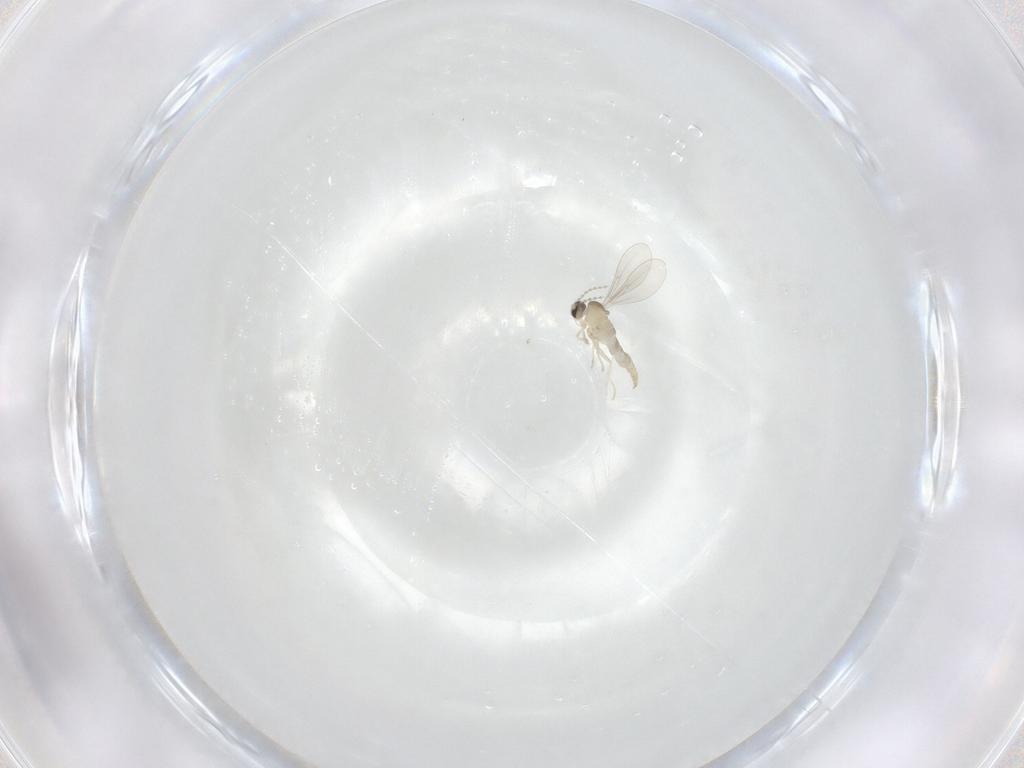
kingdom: Animalia
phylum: Arthropoda
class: Insecta
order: Diptera
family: Cecidomyiidae
